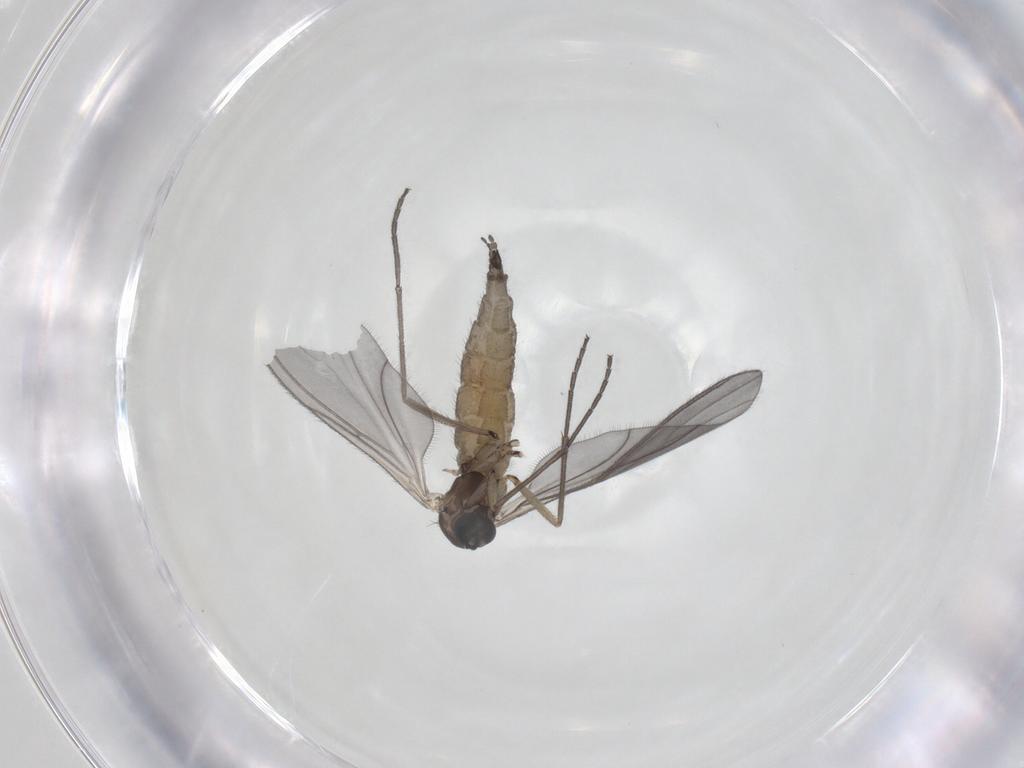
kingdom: Animalia
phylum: Arthropoda
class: Insecta
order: Diptera
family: Sciaridae
